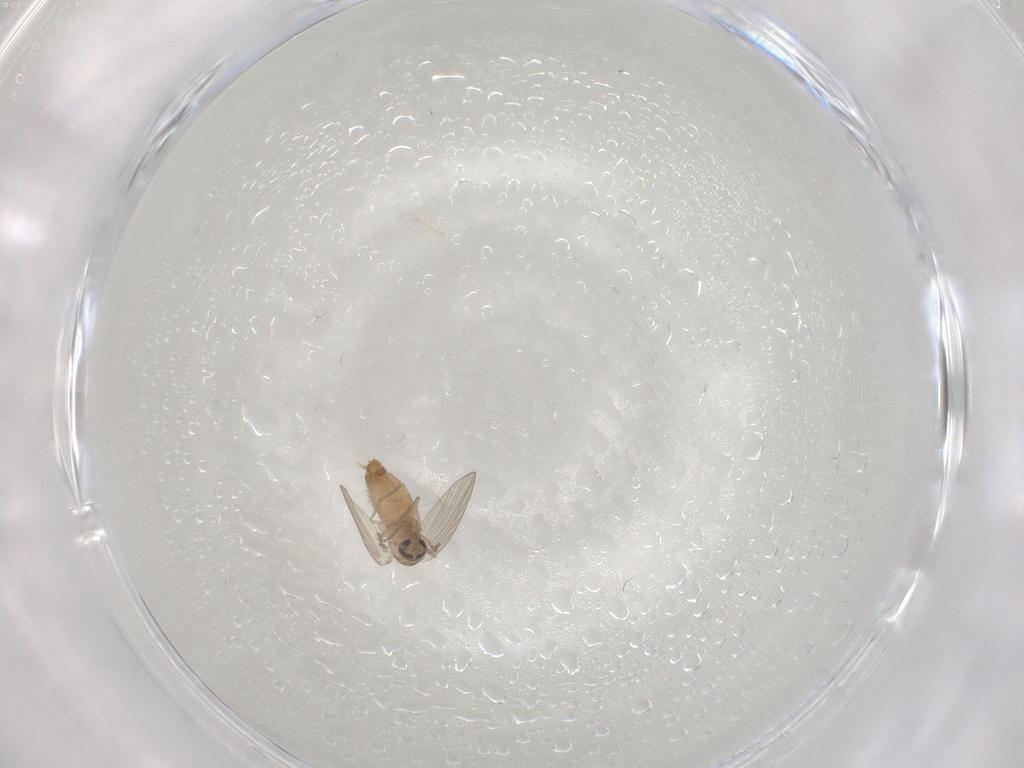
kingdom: Animalia
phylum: Arthropoda
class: Insecta
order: Diptera
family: Psychodidae
